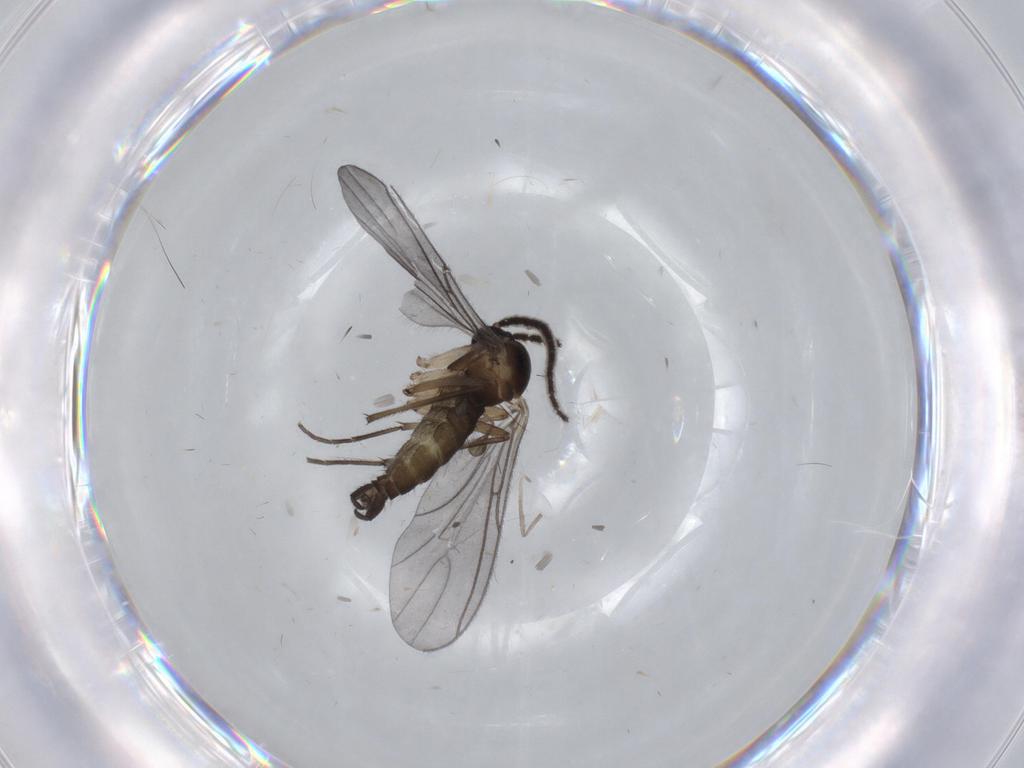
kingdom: Animalia
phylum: Arthropoda
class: Insecta
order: Diptera
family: Sciaridae
